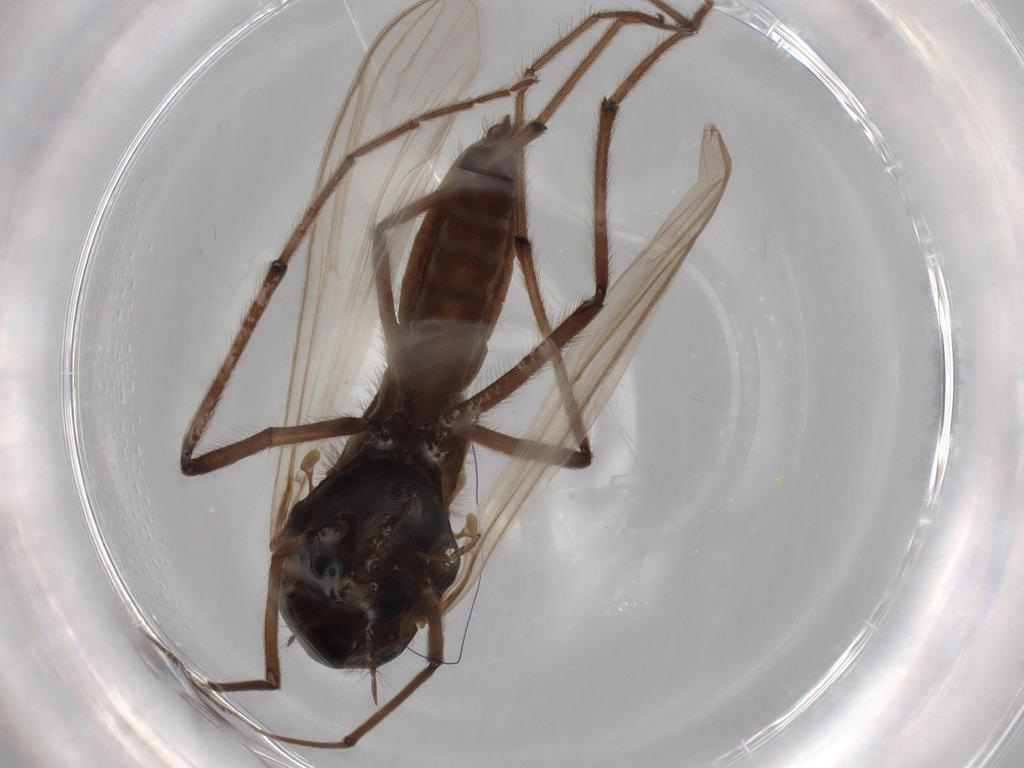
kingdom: Animalia
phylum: Arthropoda
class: Insecta
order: Diptera
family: Chironomidae
